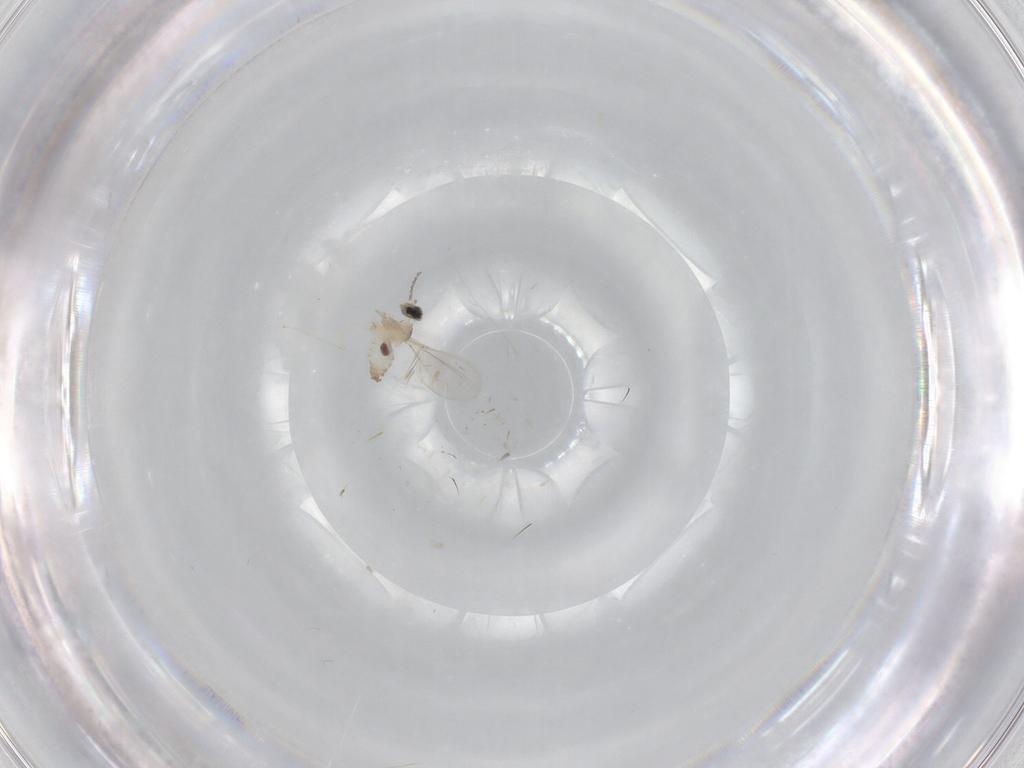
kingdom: Animalia
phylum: Arthropoda
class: Insecta
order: Diptera
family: Cecidomyiidae
